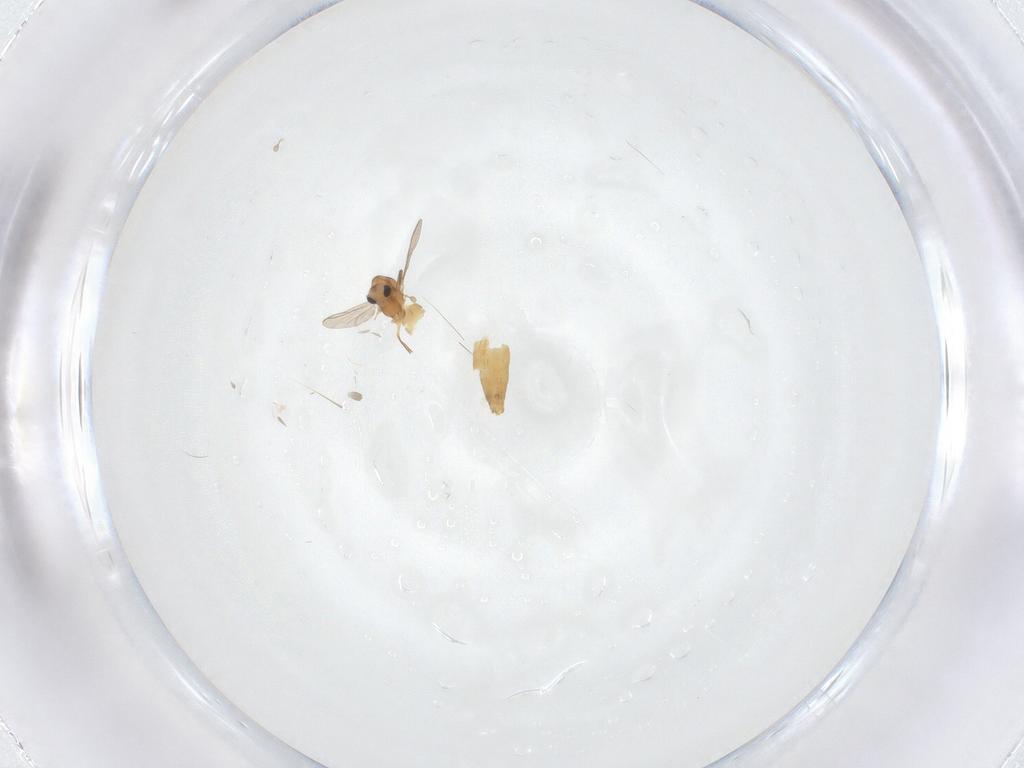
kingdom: Animalia
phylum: Arthropoda
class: Insecta
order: Diptera
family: Chironomidae
